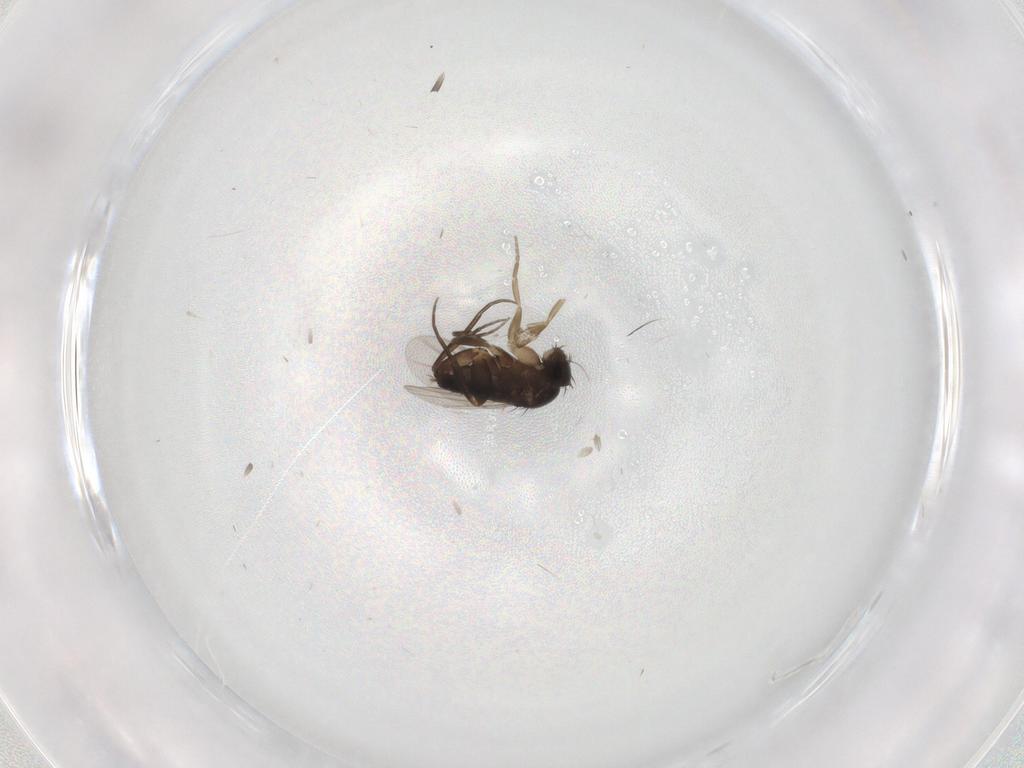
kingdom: Animalia
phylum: Arthropoda
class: Insecta
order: Diptera
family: Phoridae
